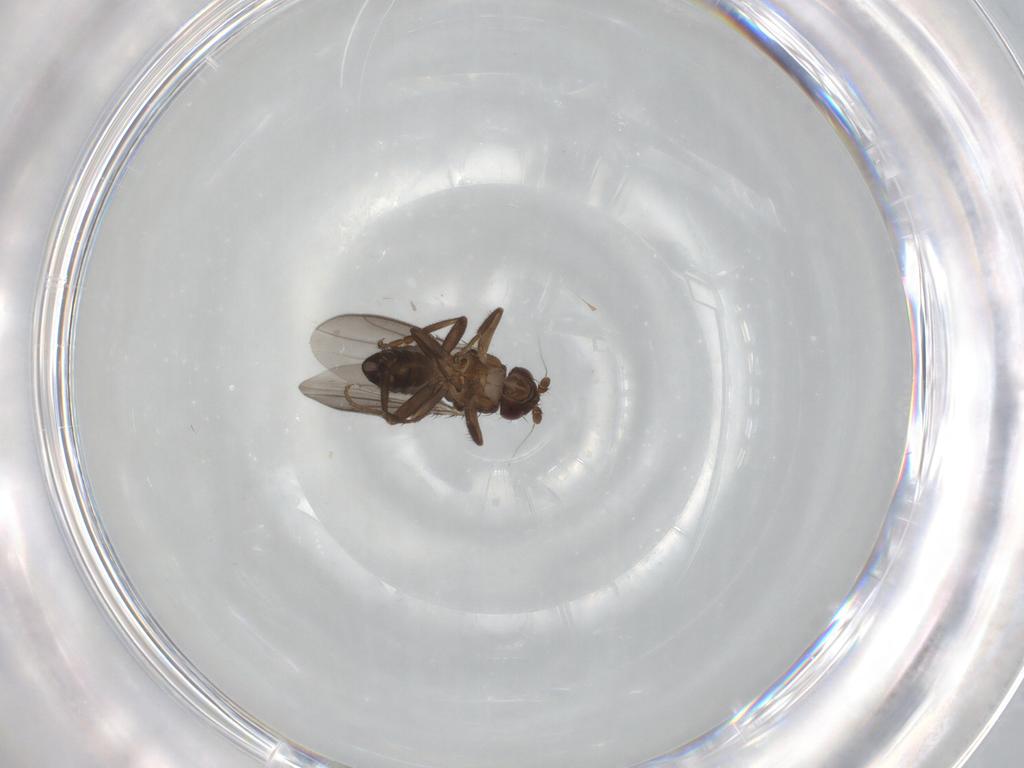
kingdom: Animalia
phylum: Arthropoda
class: Insecta
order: Diptera
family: Sphaeroceridae
